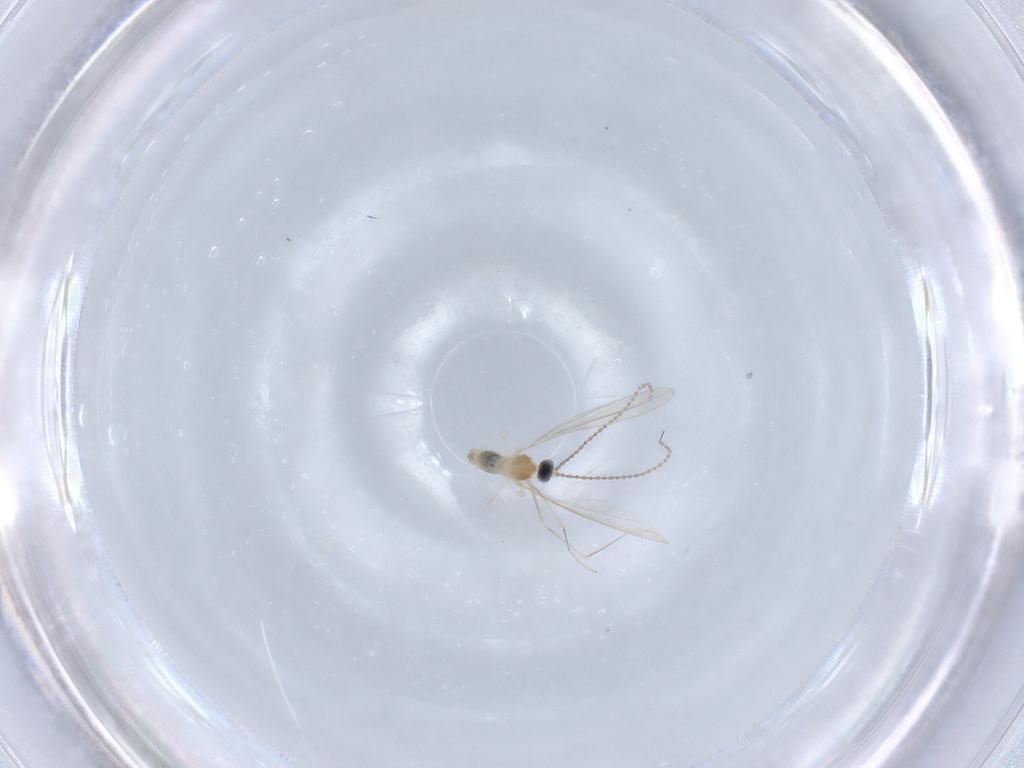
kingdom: Animalia
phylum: Arthropoda
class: Insecta
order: Diptera
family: Cecidomyiidae
